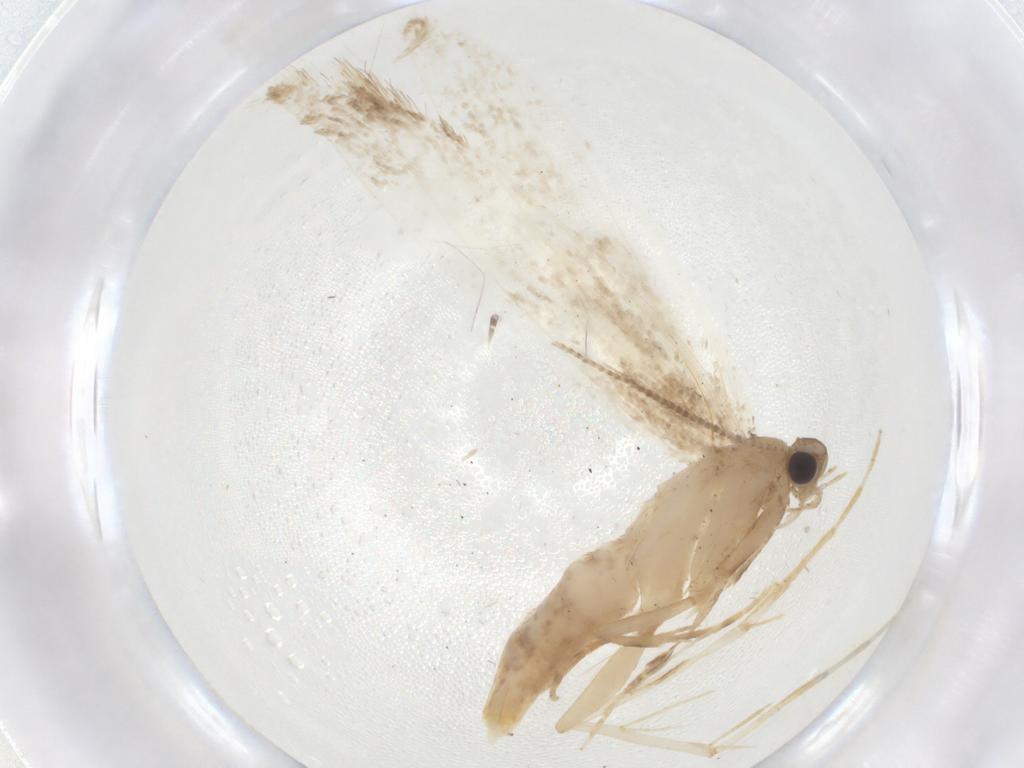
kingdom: Animalia
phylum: Arthropoda
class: Insecta
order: Lepidoptera
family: Tineidae
